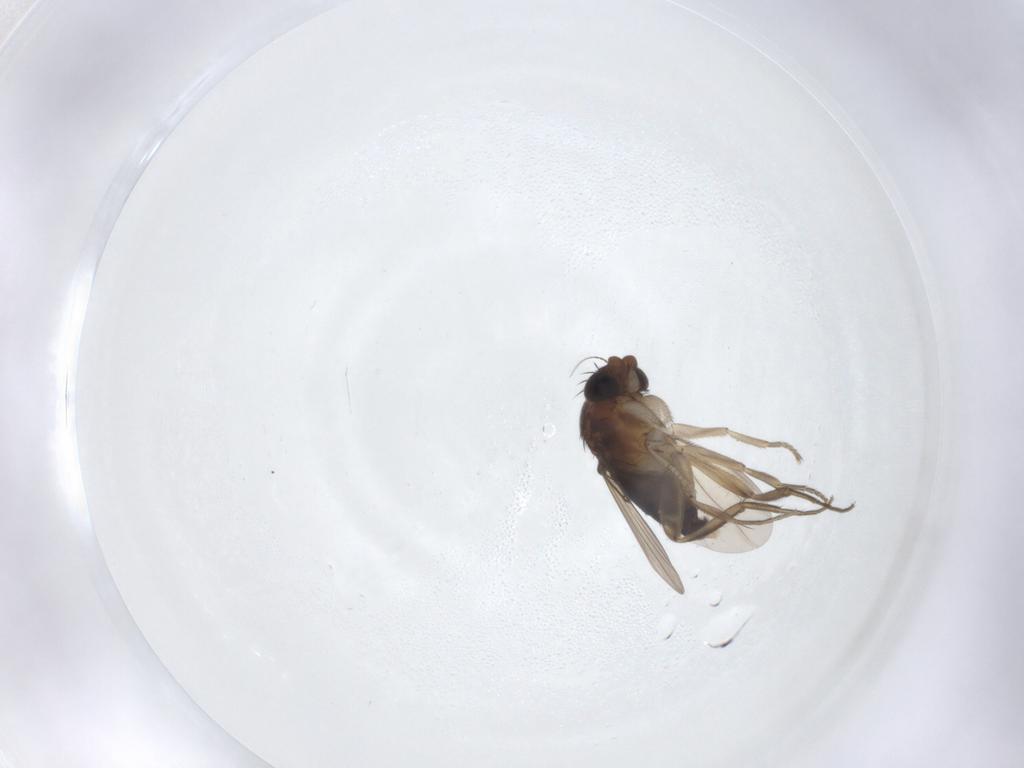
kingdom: Animalia
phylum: Arthropoda
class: Insecta
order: Diptera
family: Phoridae
